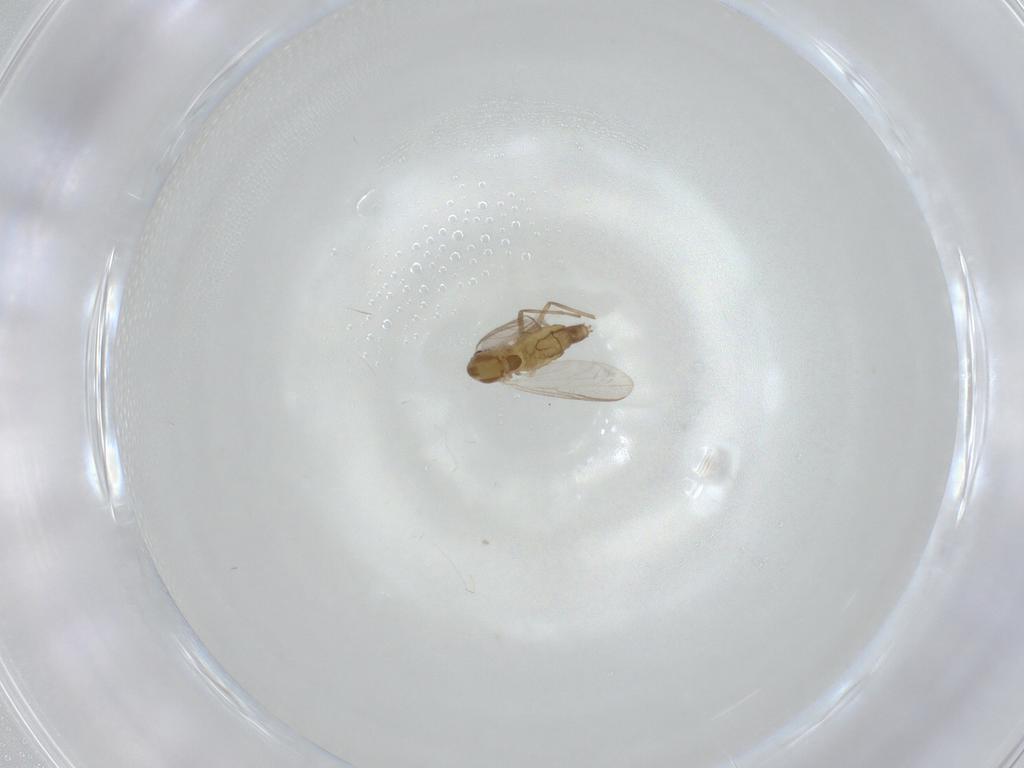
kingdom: Animalia
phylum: Arthropoda
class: Insecta
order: Diptera
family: Chironomidae
